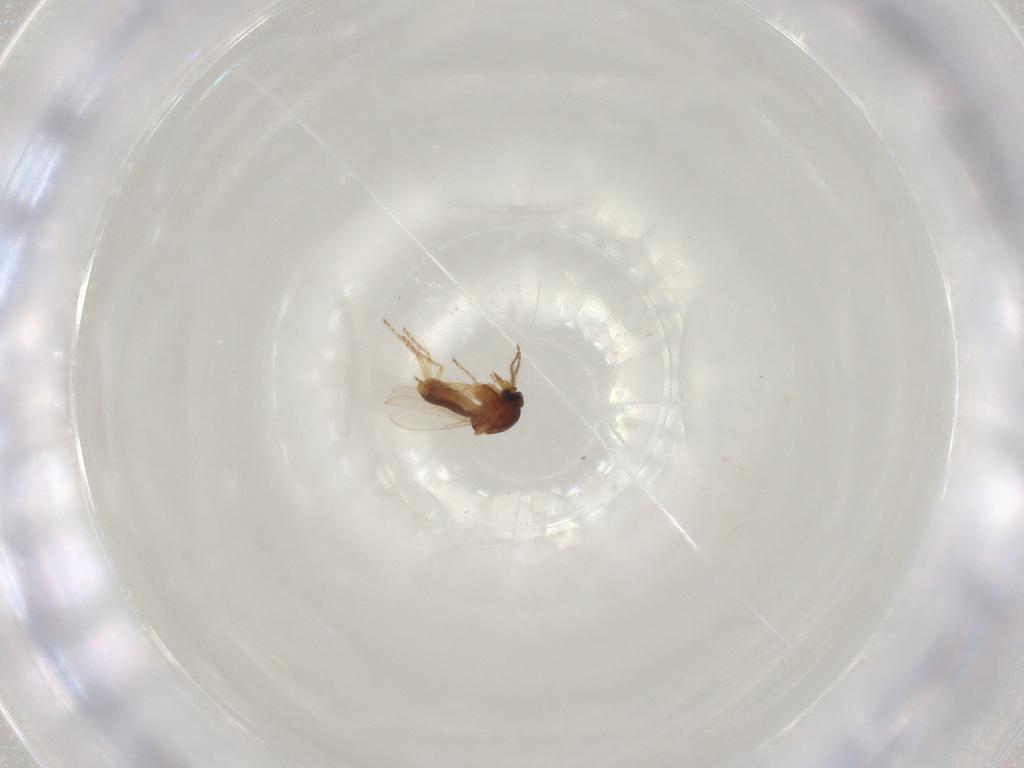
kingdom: Animalia
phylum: Arthropoda
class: Insecta
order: Diptera
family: Ceratopogonidae
